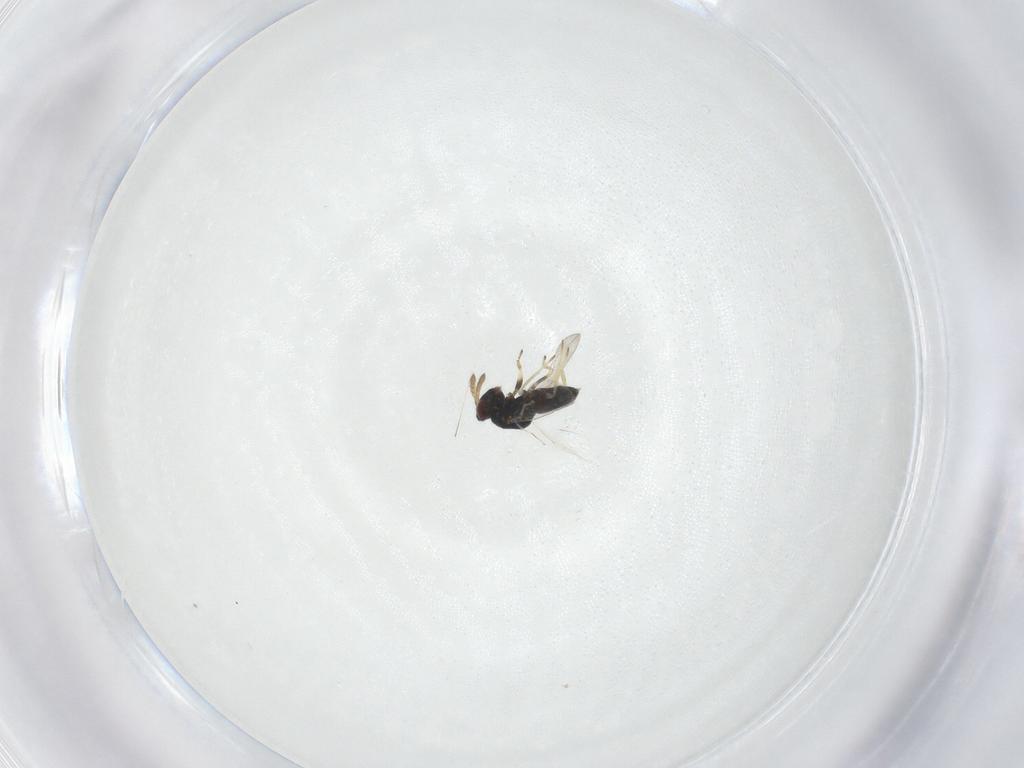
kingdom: Animalia
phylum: Arthropoda
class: Insecta
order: Hymenoptera
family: Eulophidae
